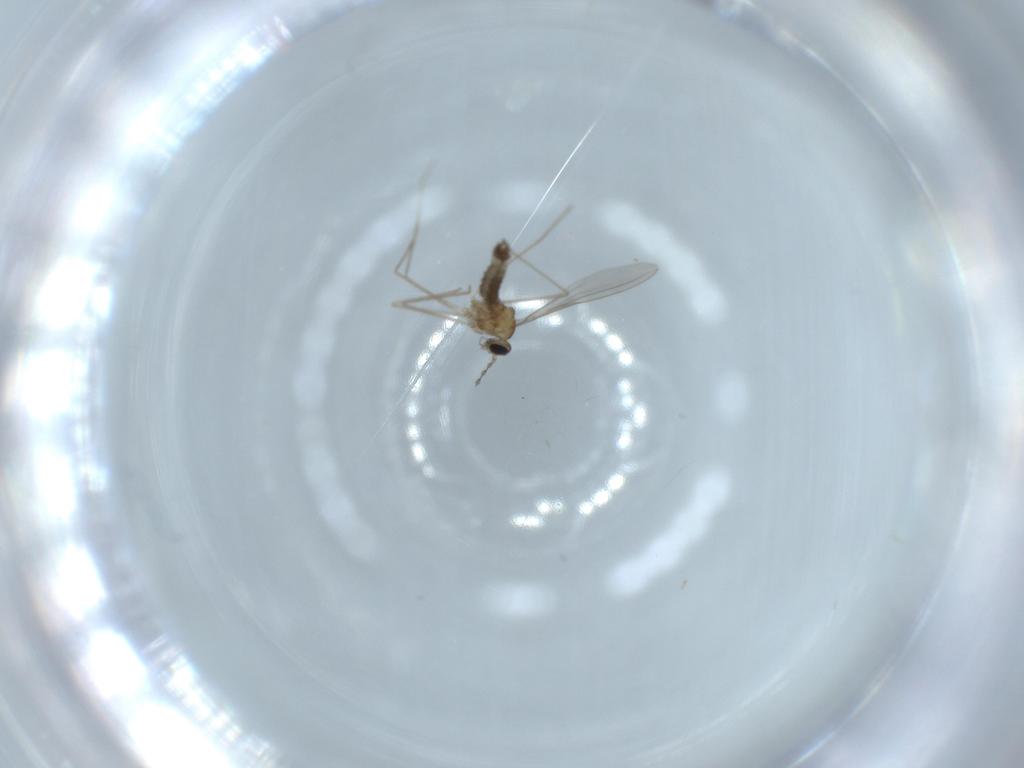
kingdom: Animalia
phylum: Arthropoda
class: Insecta
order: Diptera
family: Cecidomyiidae
